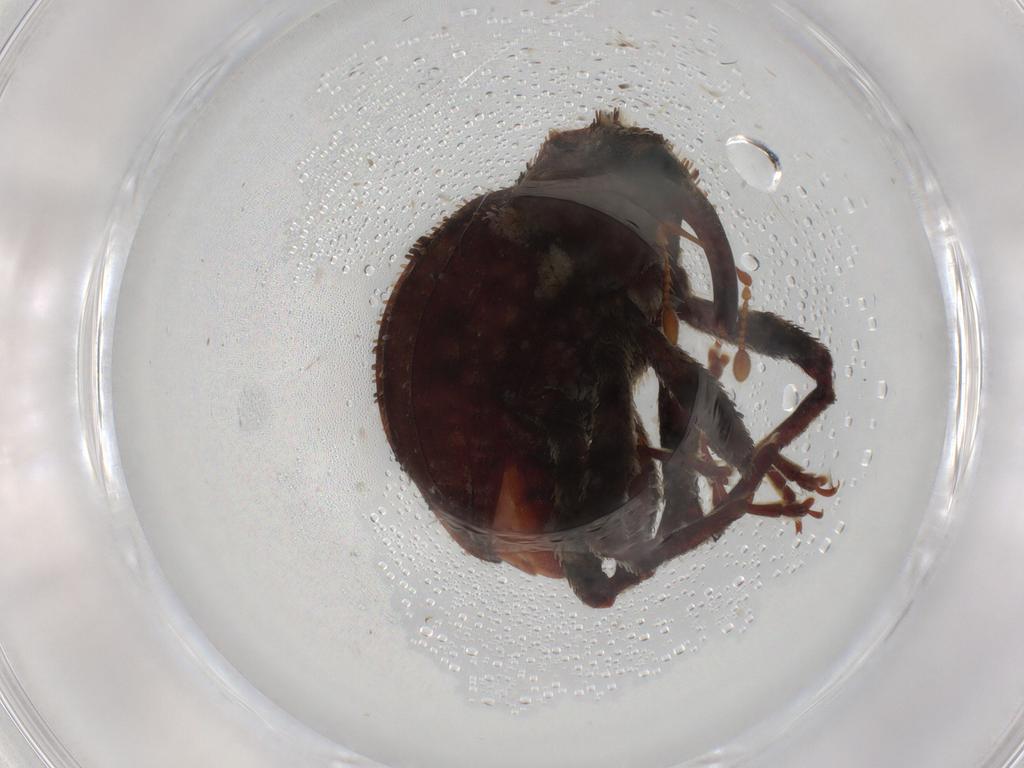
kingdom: Animalia
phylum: Arthropoda
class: Insecta
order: Coleoptera
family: Curculionidae
